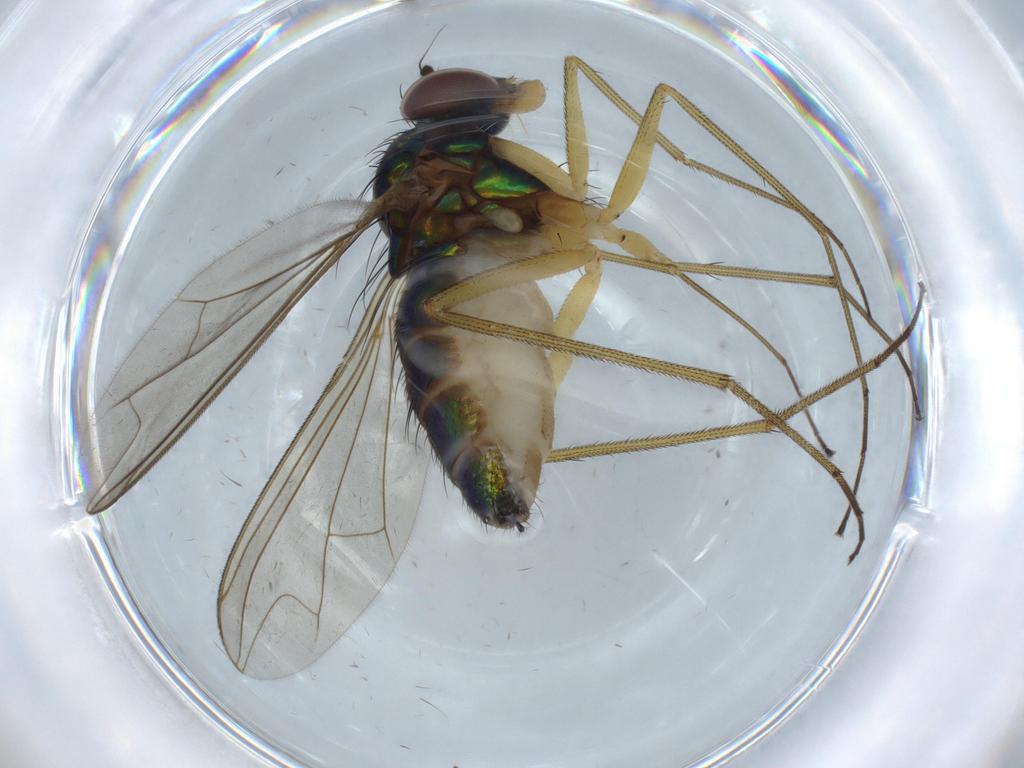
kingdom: Animalia
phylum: Arthropoda
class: Insecta
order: Diptera
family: Dolichopodidae
